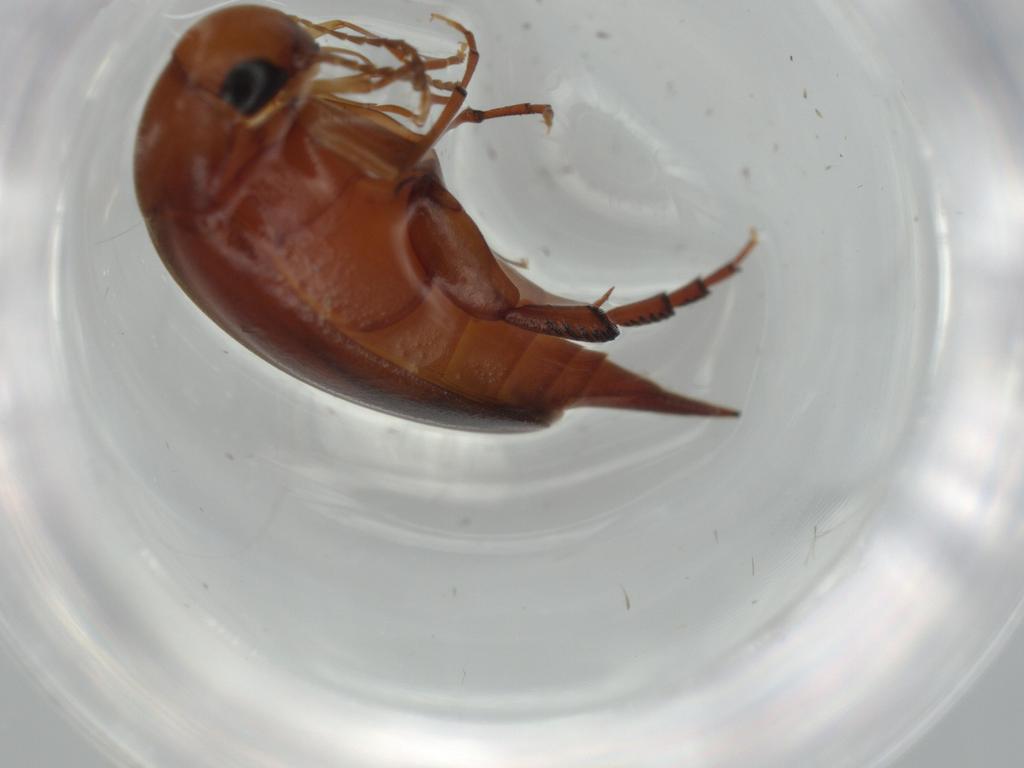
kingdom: Animalia
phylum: Arthropoda
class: Insecta
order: Coleoptera
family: Mordellidae
